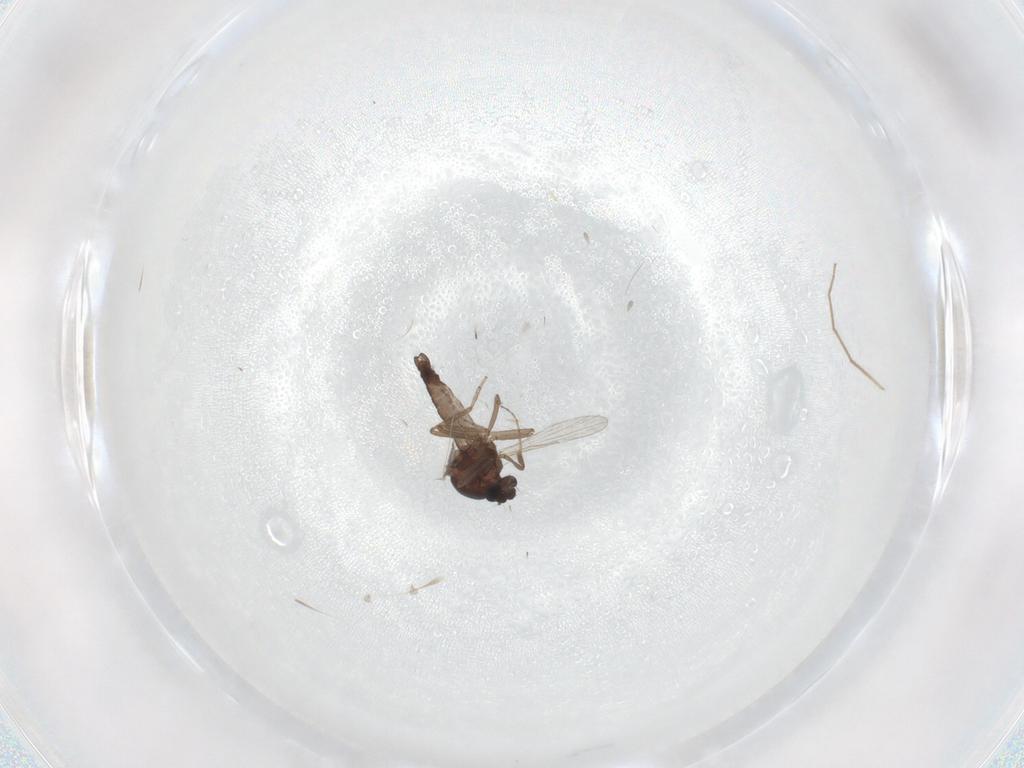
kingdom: Animalia
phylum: Arthropoda
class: Insecta
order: Diptera
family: Ceratopogonidae
